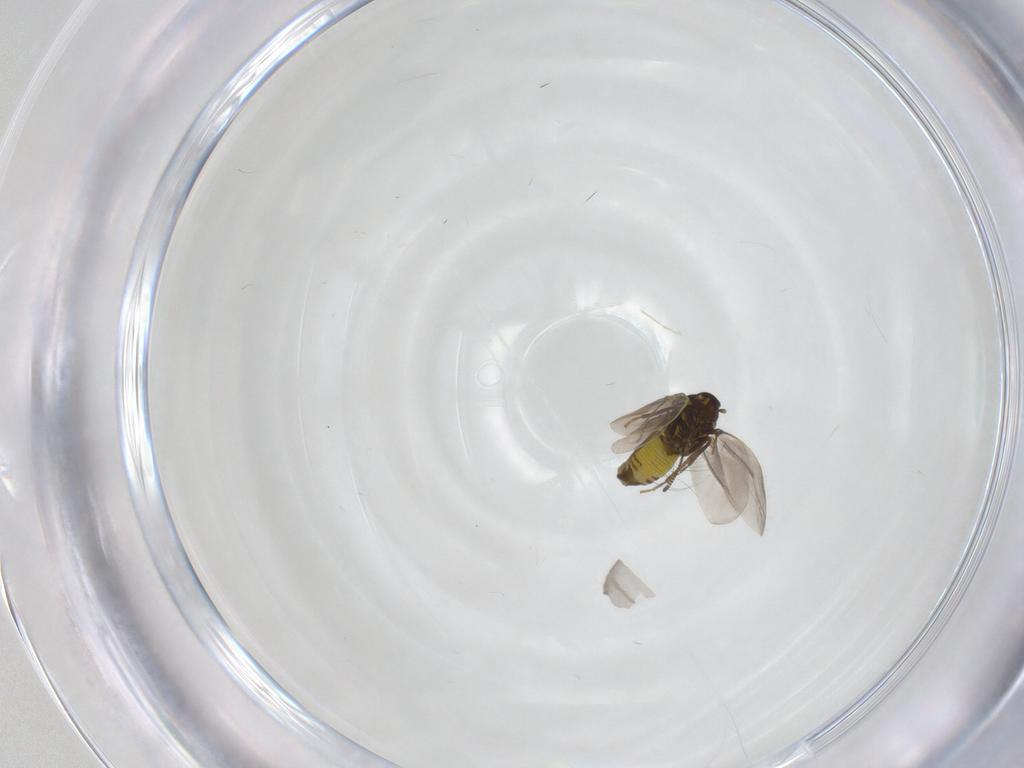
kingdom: Animalia
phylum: Arthropoda
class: Insecta
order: Hemiptera
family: Aleyrodidae
